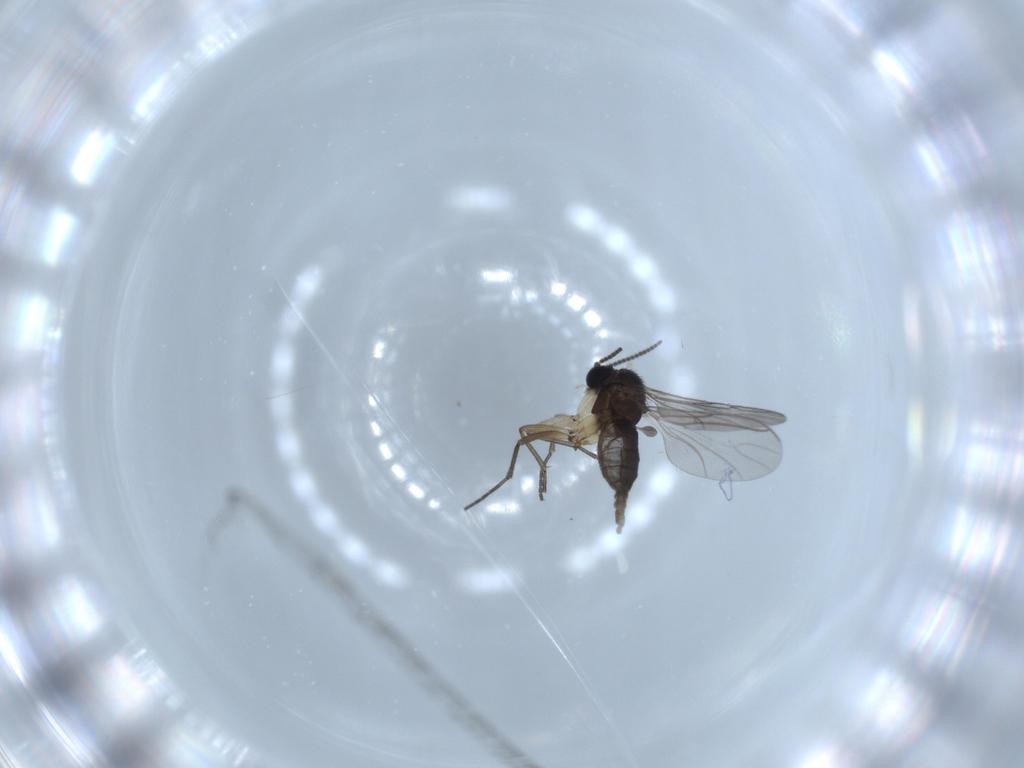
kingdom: Animalia
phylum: Arthropoda
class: Insecta
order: Diptera
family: Sciaridae
